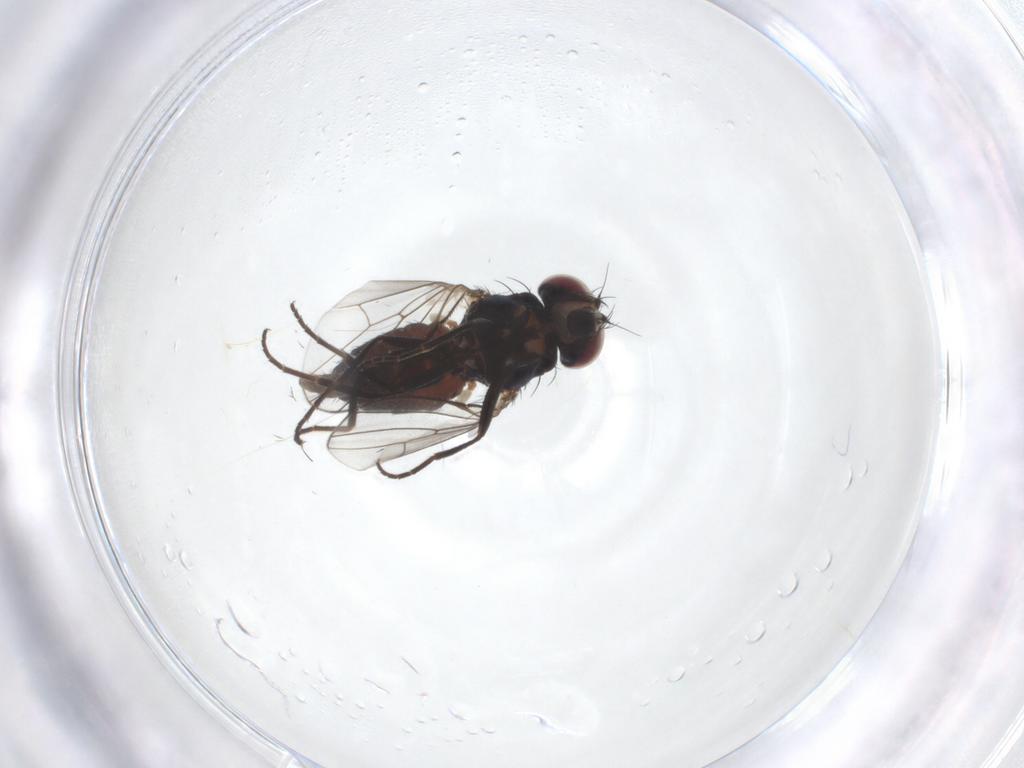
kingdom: Animalia
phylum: Arthropoda
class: Insecta
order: Diptera
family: Carnidae
